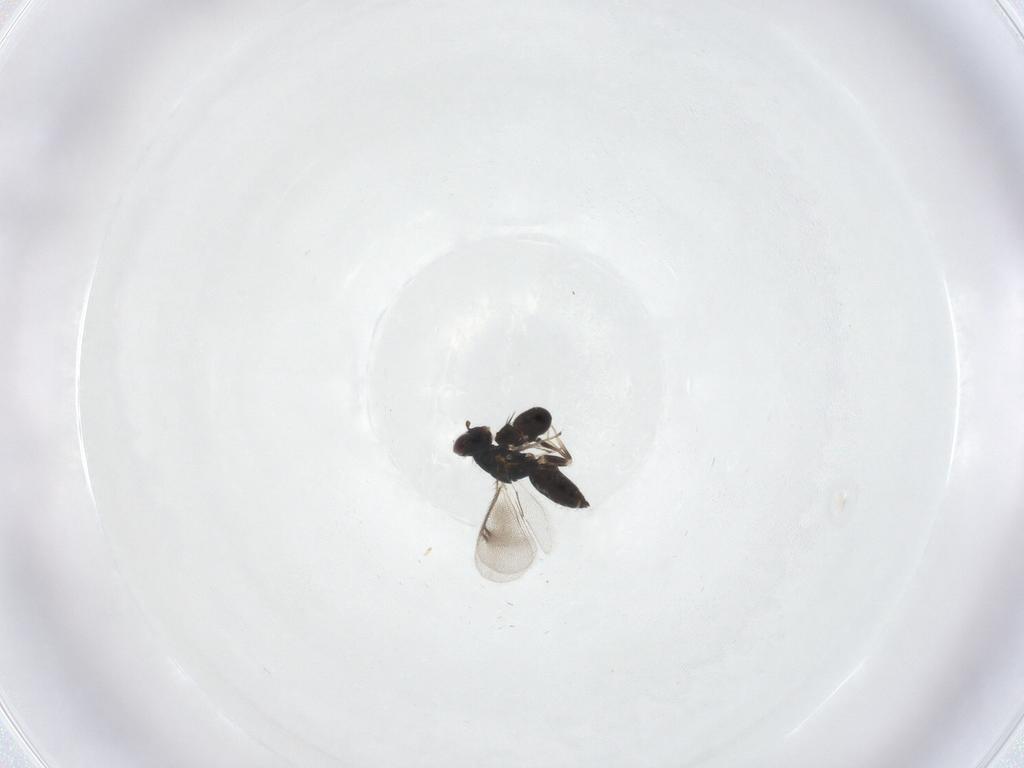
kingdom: Animalia
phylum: Arthropoda
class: Insecta
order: Hymenoptera
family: Eulophidae
